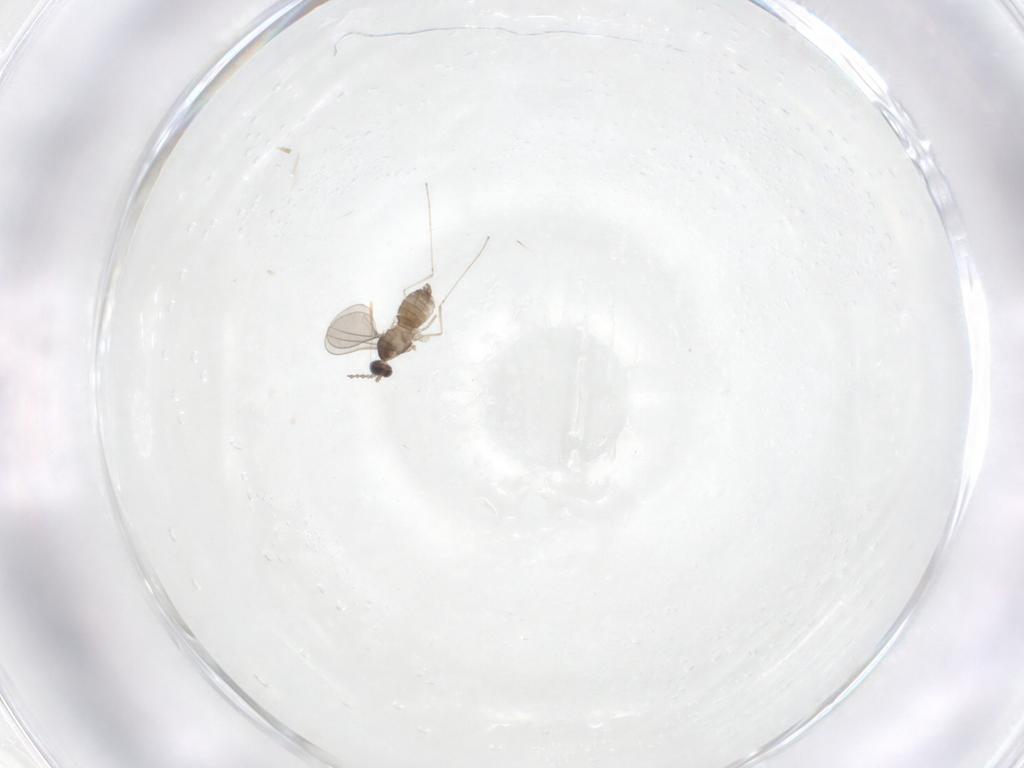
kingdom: Animalia
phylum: Arthropoda
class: Insecta
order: Diptera
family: Cecidomyiidae
